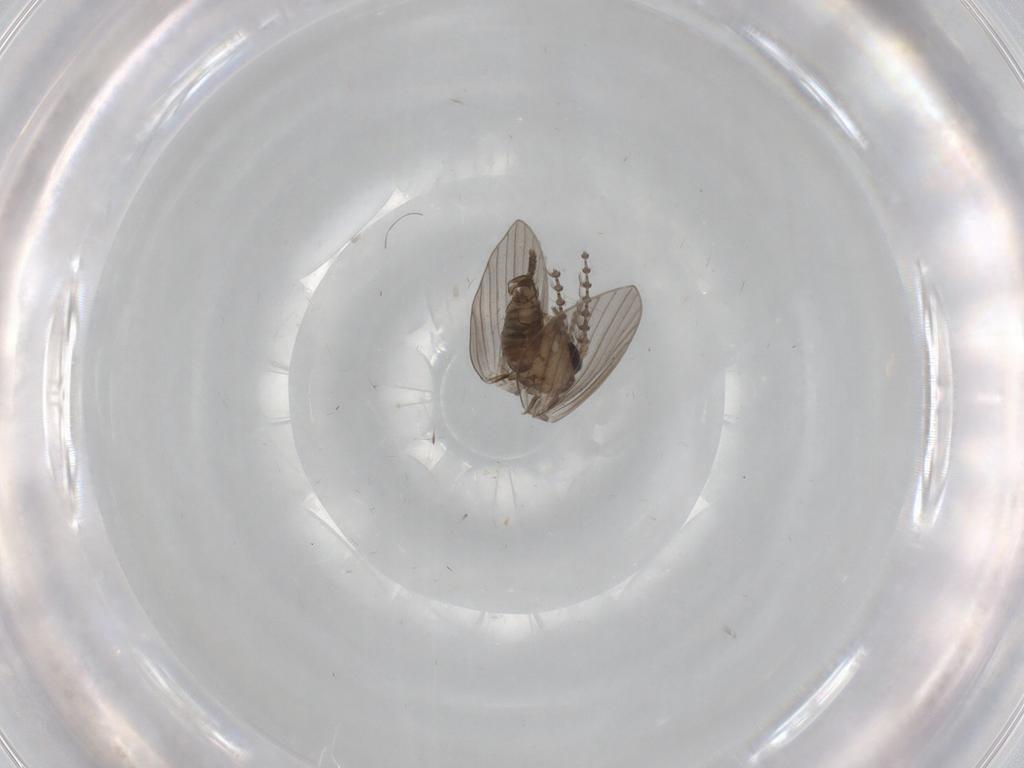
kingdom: Animalia
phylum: Arthropoda
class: Insecta
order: Diptera
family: Psychodidae
